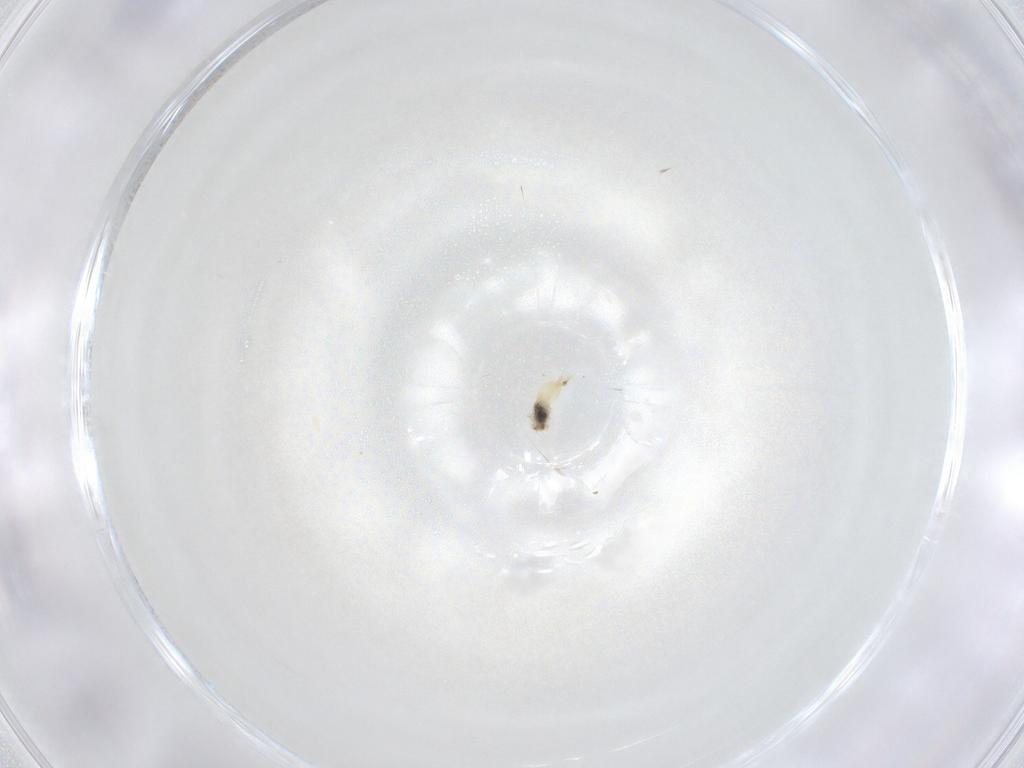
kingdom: Animalia
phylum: Arthropoda
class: Insecta
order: Diptera
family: Cecidomyiidae
